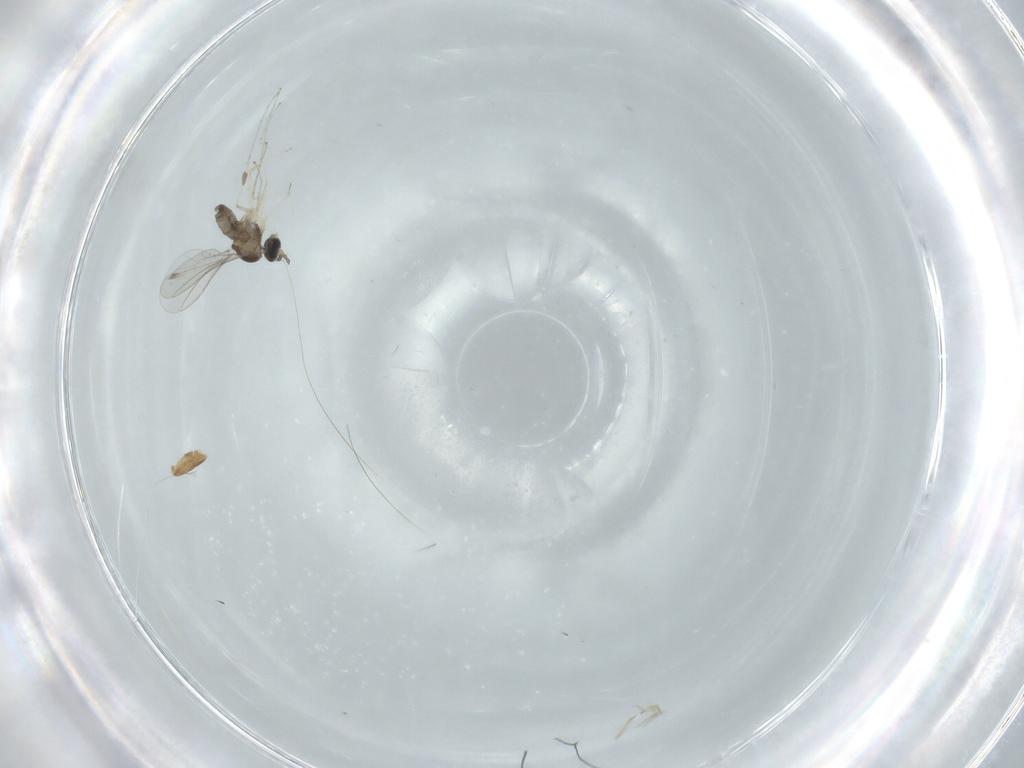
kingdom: Animalia
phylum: Arthropoda
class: Insecta
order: Diptera
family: Cecidomyiidae
